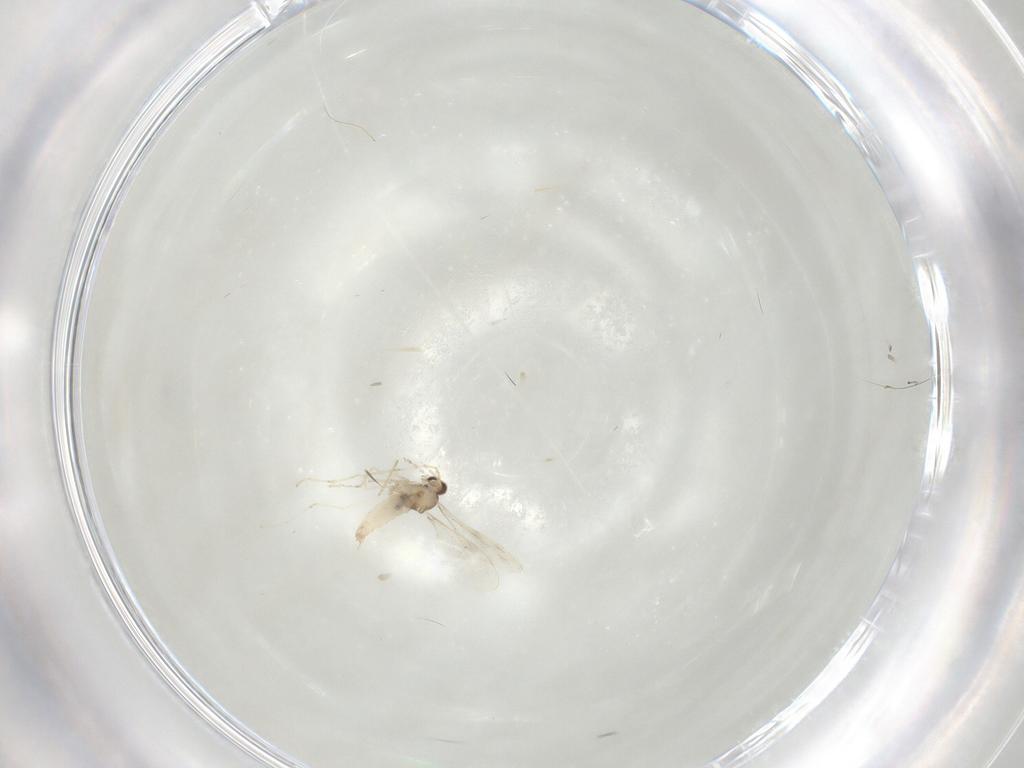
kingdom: Animalia
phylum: Arthropoda
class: Insecta
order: Diptera
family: Cecidomyiidae
